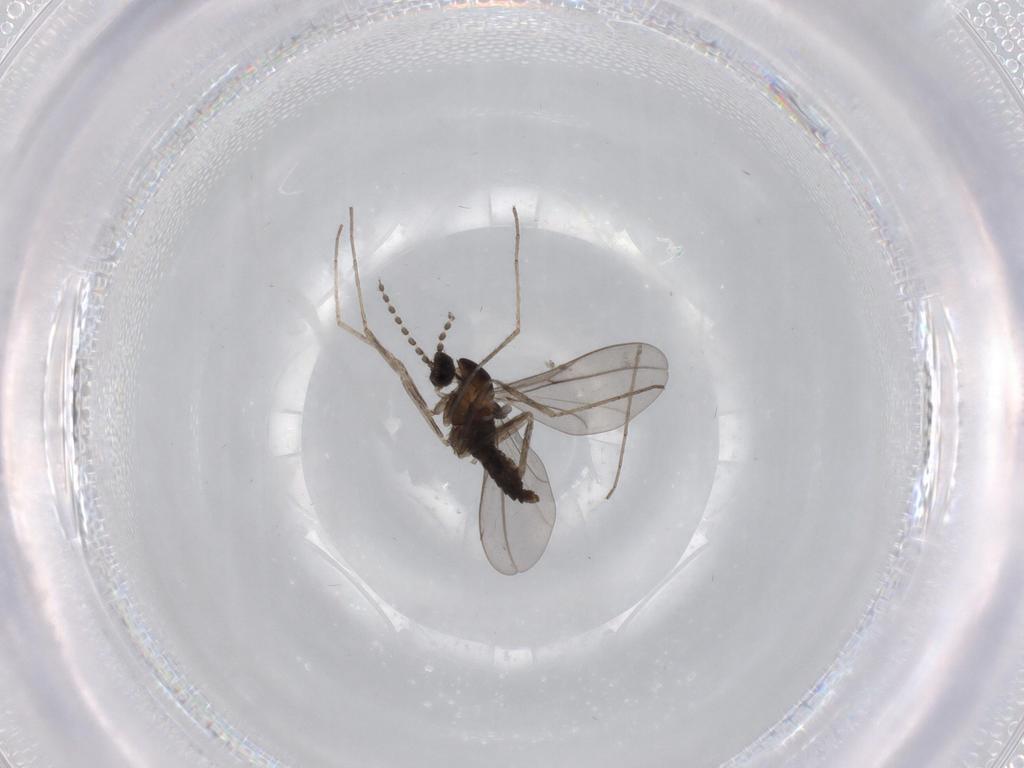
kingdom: Animalia
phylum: Arthropoda
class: Insecta
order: Diptera
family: Cecidomyiidae
